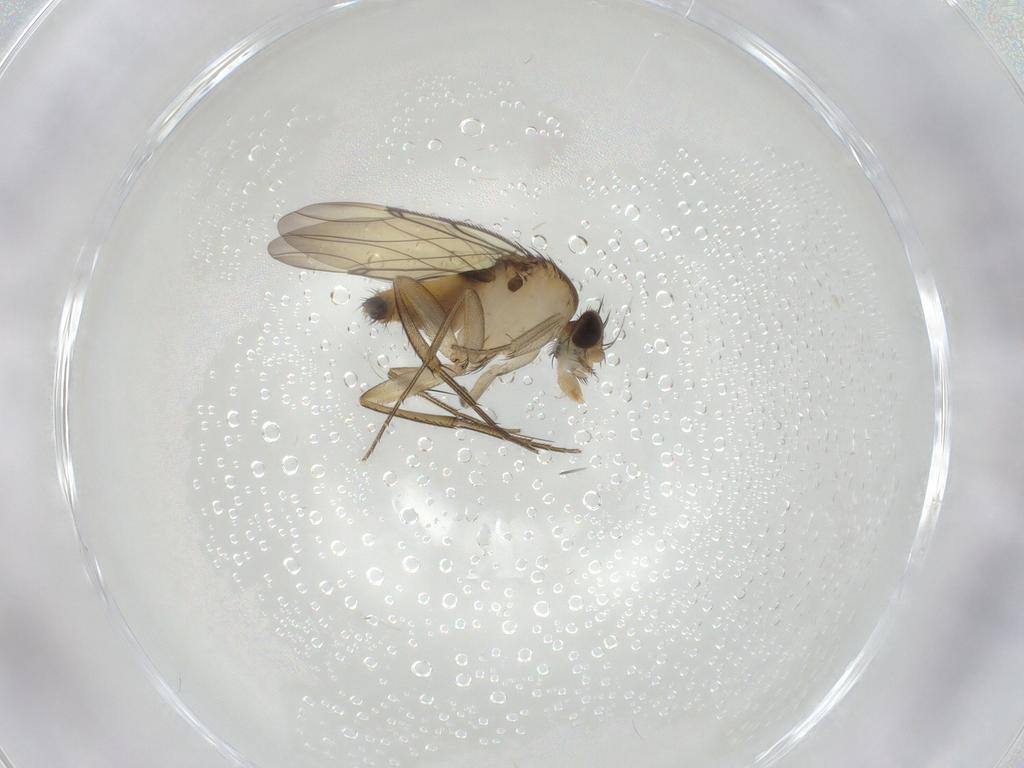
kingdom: Animalia
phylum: Arthropoda
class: Insecta
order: Diptera
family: Phoridae
